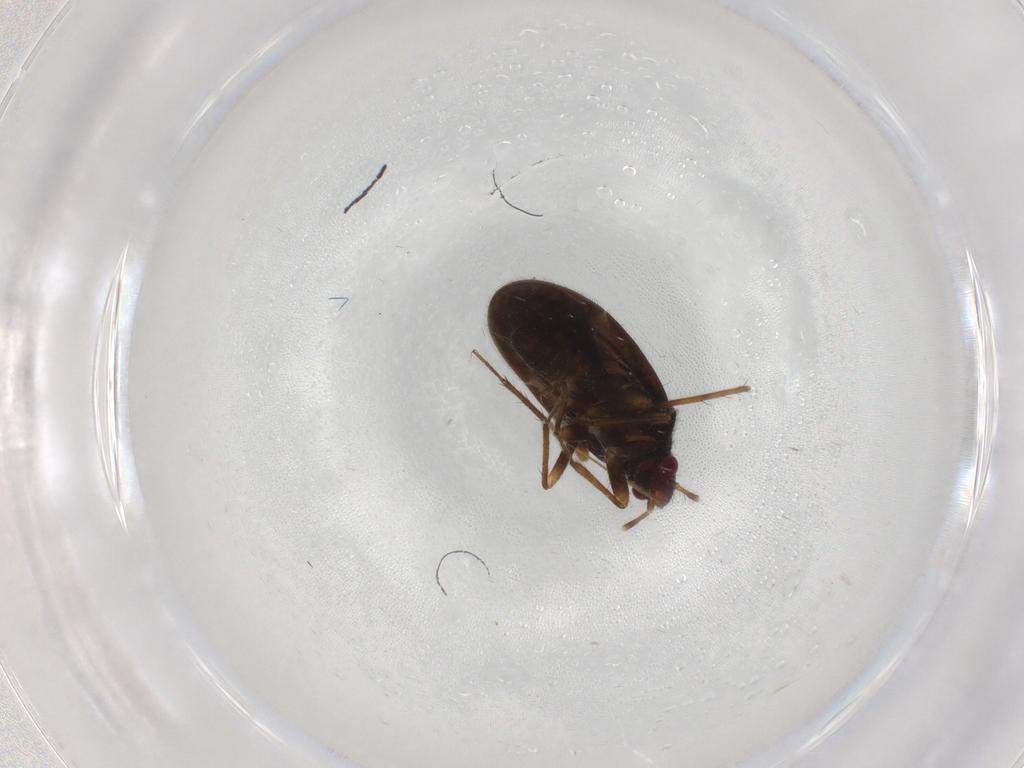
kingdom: Animalia
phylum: Arthropoda
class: Insecta
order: Hemiptera
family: Ceratocombidae
